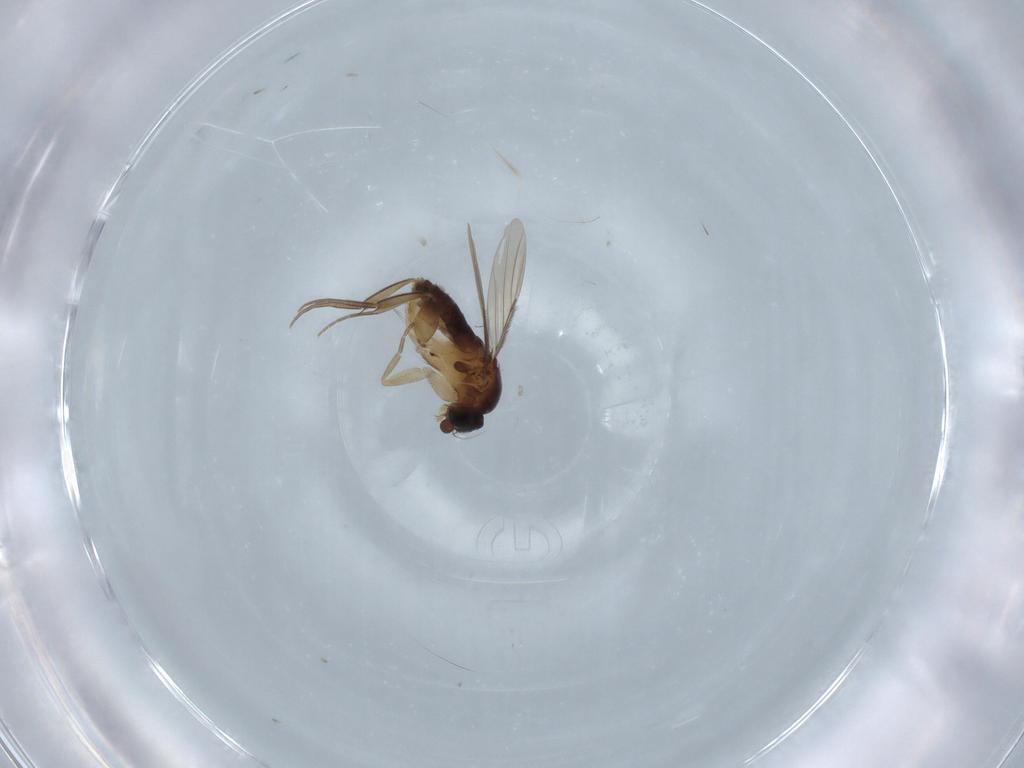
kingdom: Animalia
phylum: Arthropoda
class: Insecta
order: Diptera
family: Phoridae
